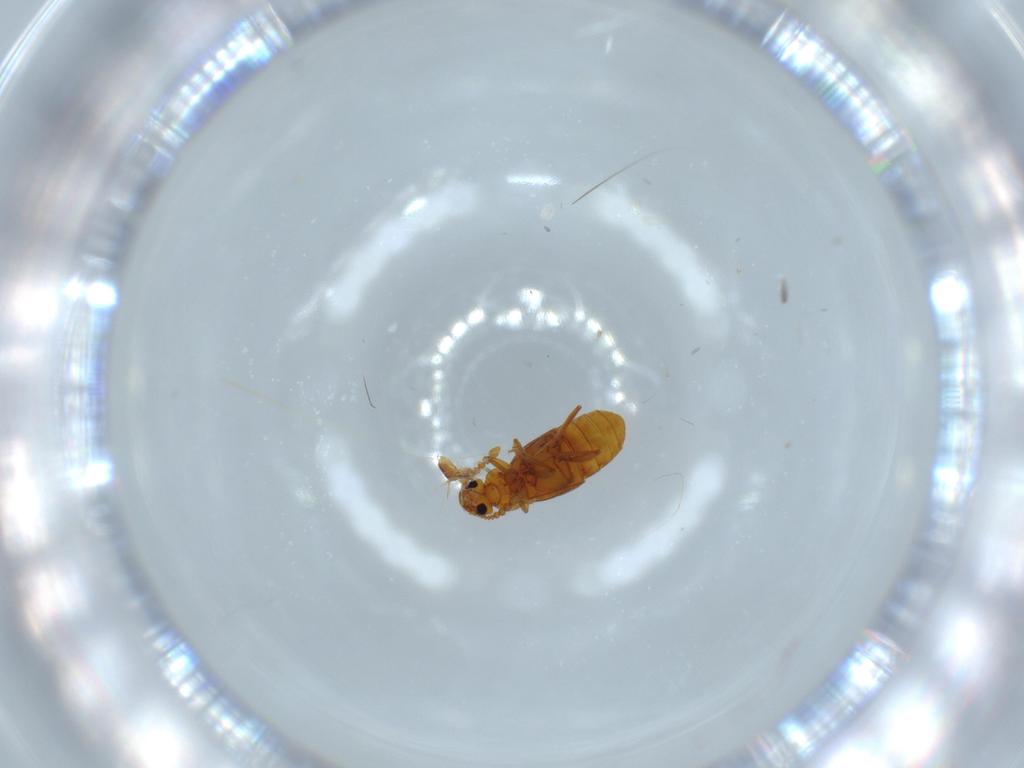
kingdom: Animalia
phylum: Arthropoda
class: Insecta
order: Coleoptera
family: Staphylinidae
